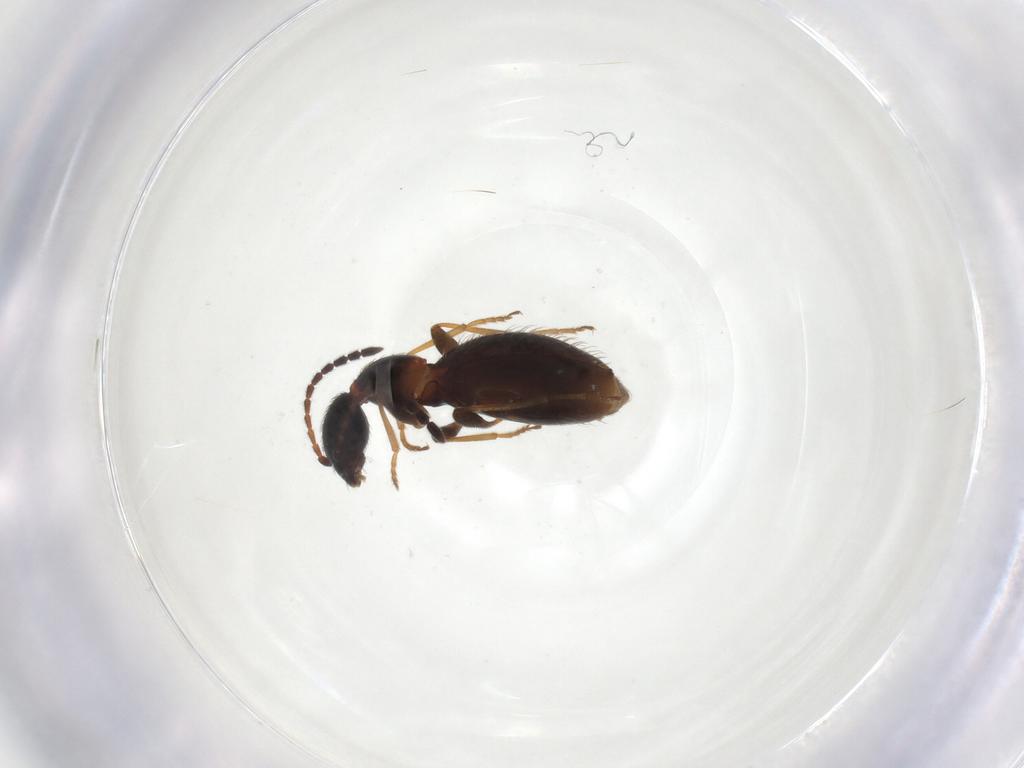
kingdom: Animalia
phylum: Arthropoda
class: Insecta
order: Coleoptera
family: Anthicidae
